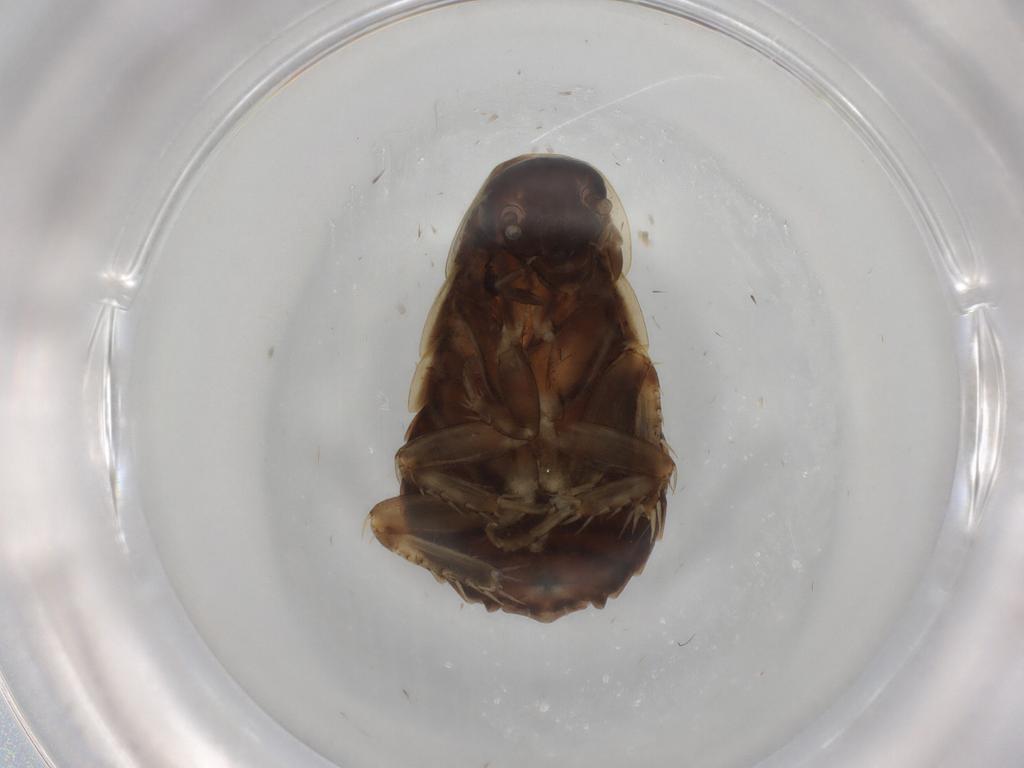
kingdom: Animalia
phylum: Arthropoda
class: Insecta
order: Blattodea
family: Ectobiidae
